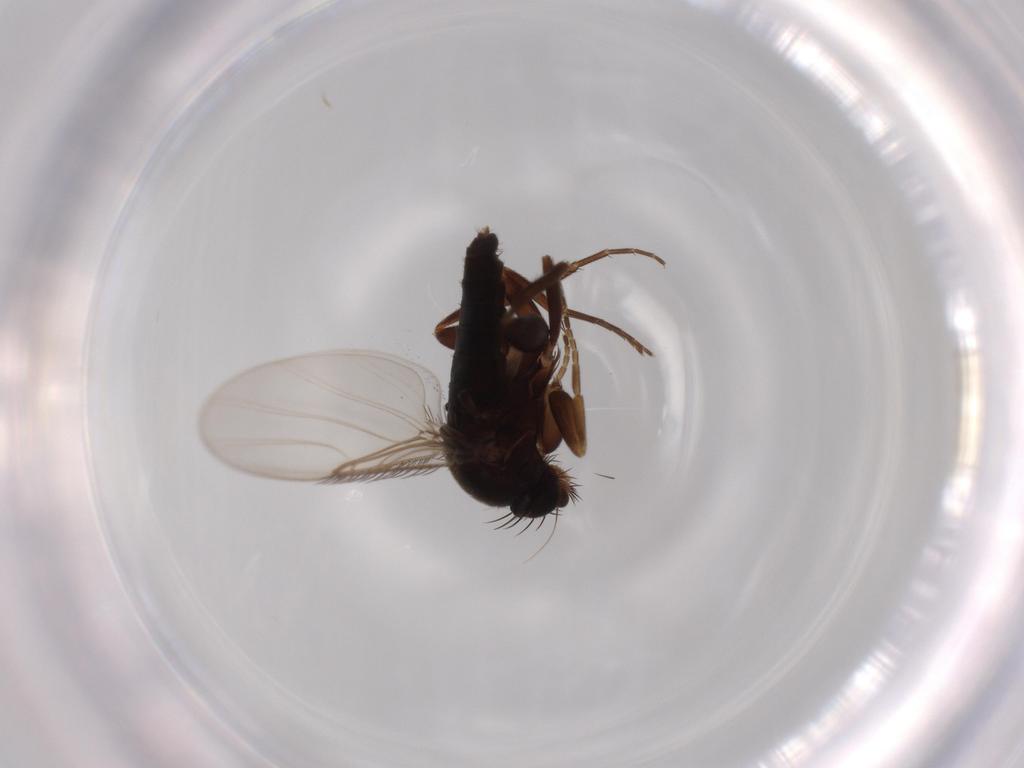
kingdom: Animalia
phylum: Arthropoda
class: Insecta
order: Diptera
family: Phoridae
